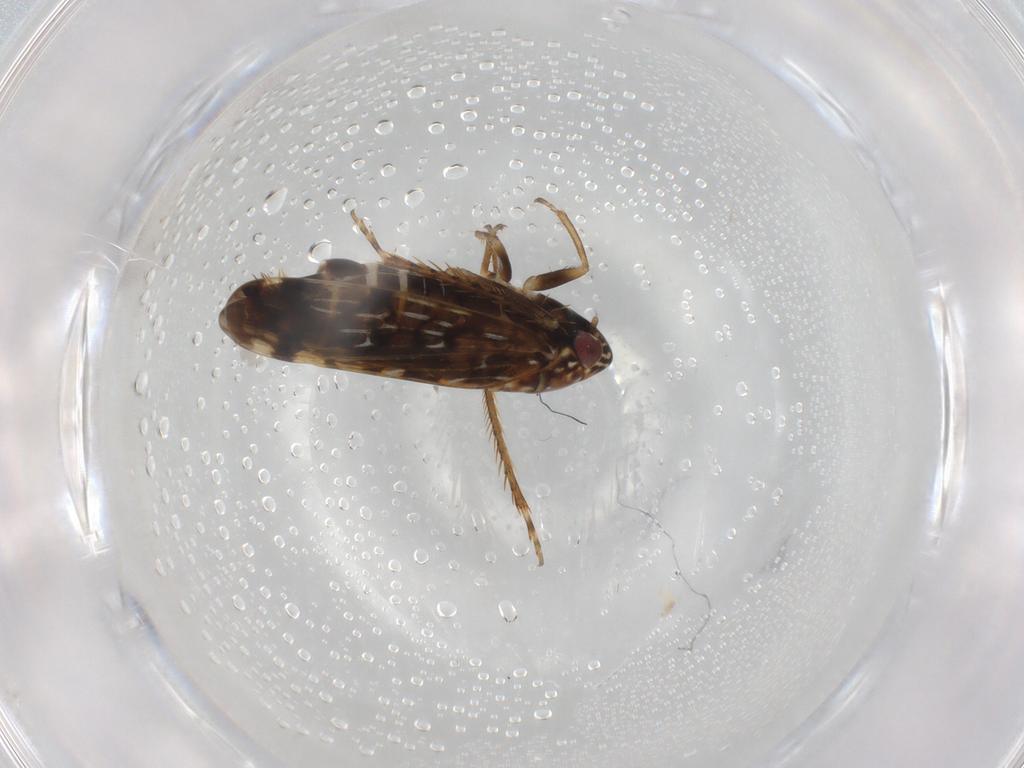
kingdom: Animalia
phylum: Arthropoda
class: Insecta
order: Hemiptera
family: Cicadellidae
